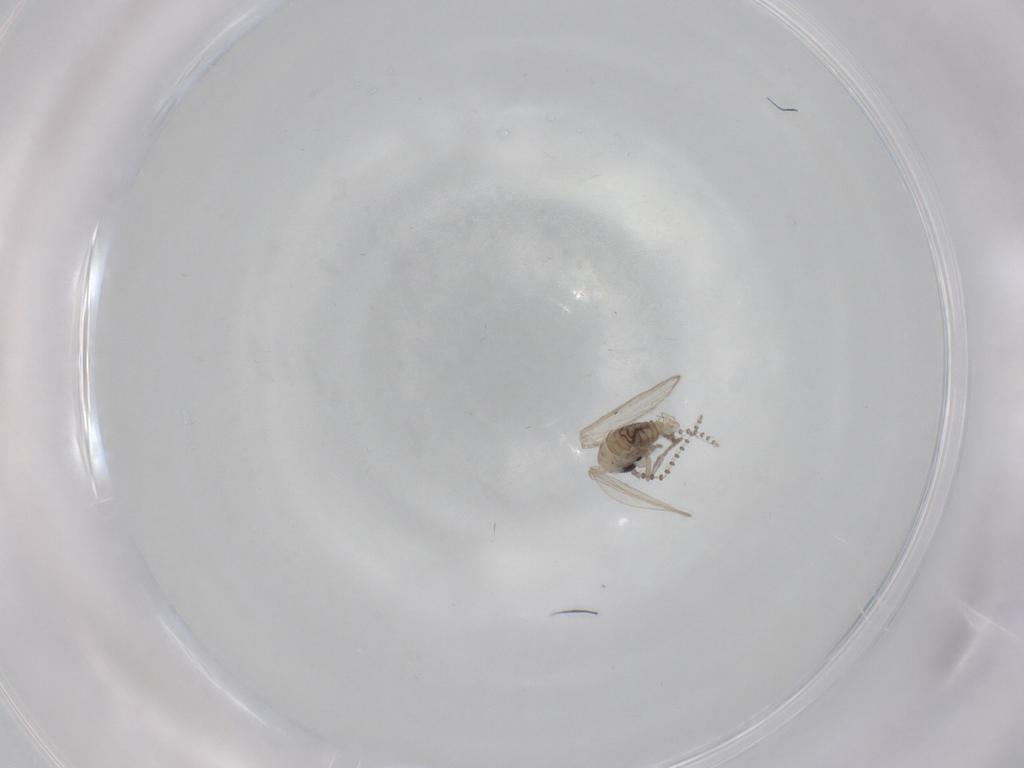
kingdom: Animalia
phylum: Arthropoda
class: Insecta
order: Diptera
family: Psychodidae
